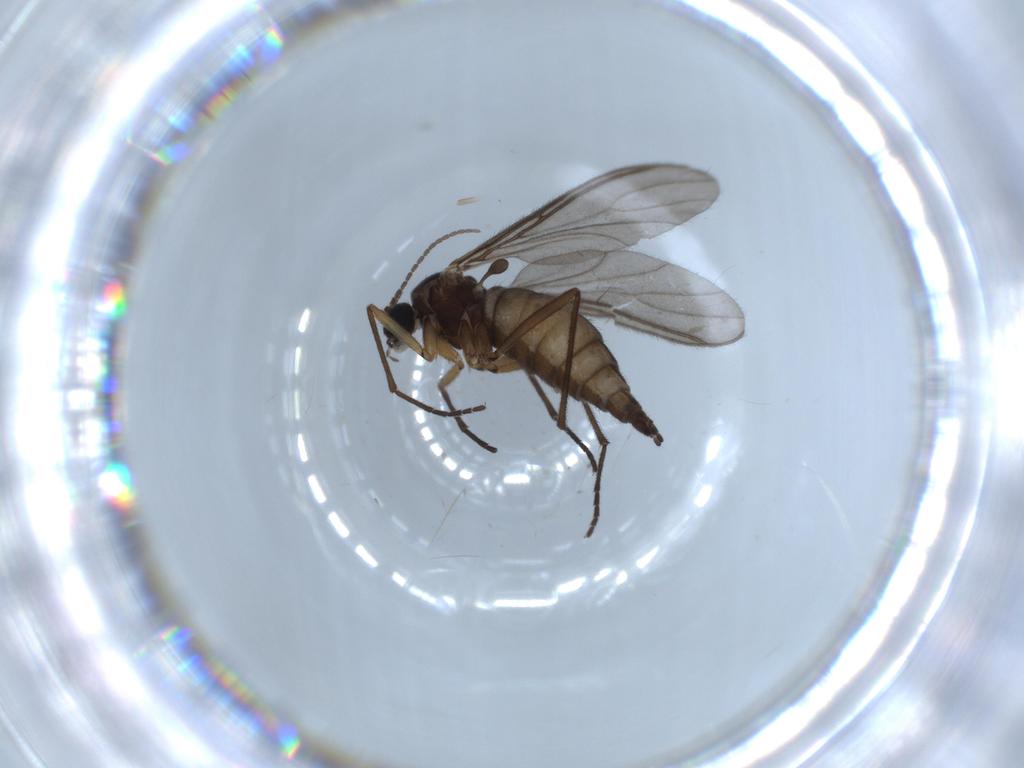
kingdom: Animalia
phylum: Arthropoda
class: Insecta
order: Diptera
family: Sciaridae
